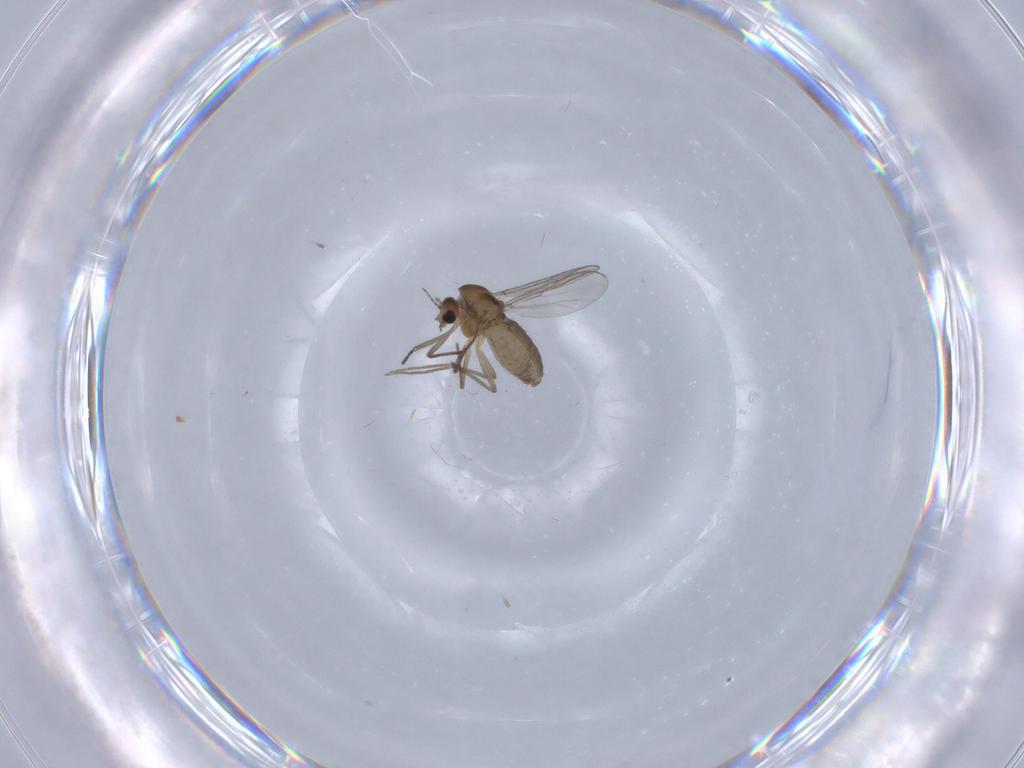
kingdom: Animalia
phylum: Arthropoda
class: Insecta
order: Diptera
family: Chironomidae
